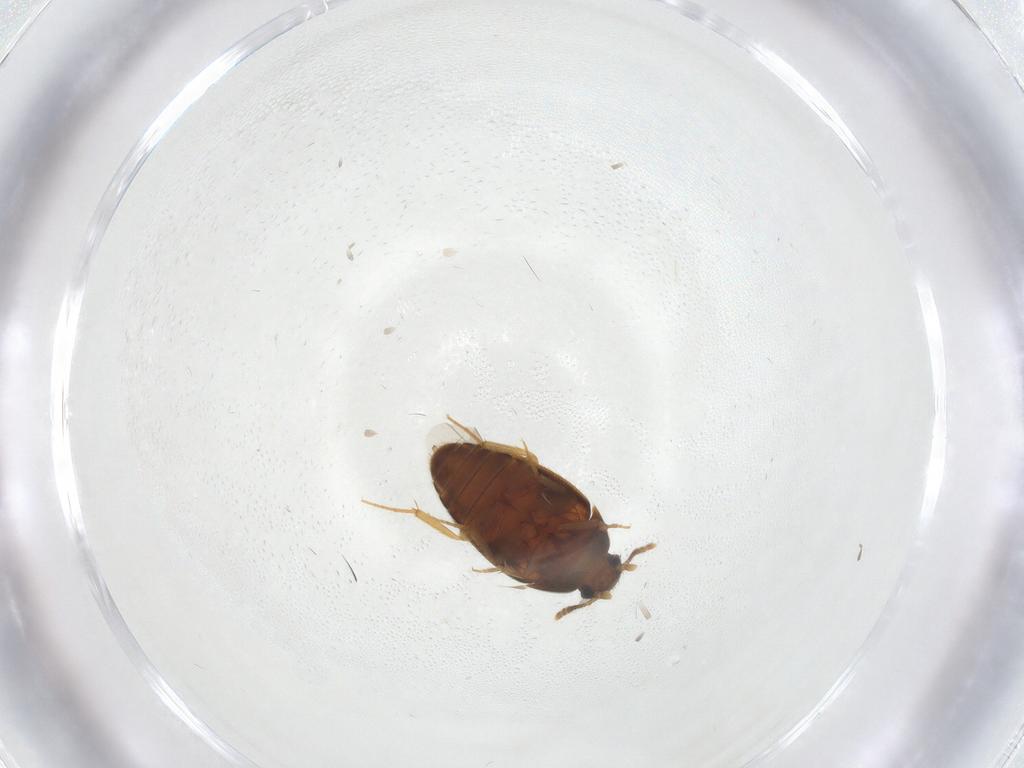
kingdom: Animalia
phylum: Arthropoda
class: Insecta
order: Coleoptera
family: Mycetophagidae
